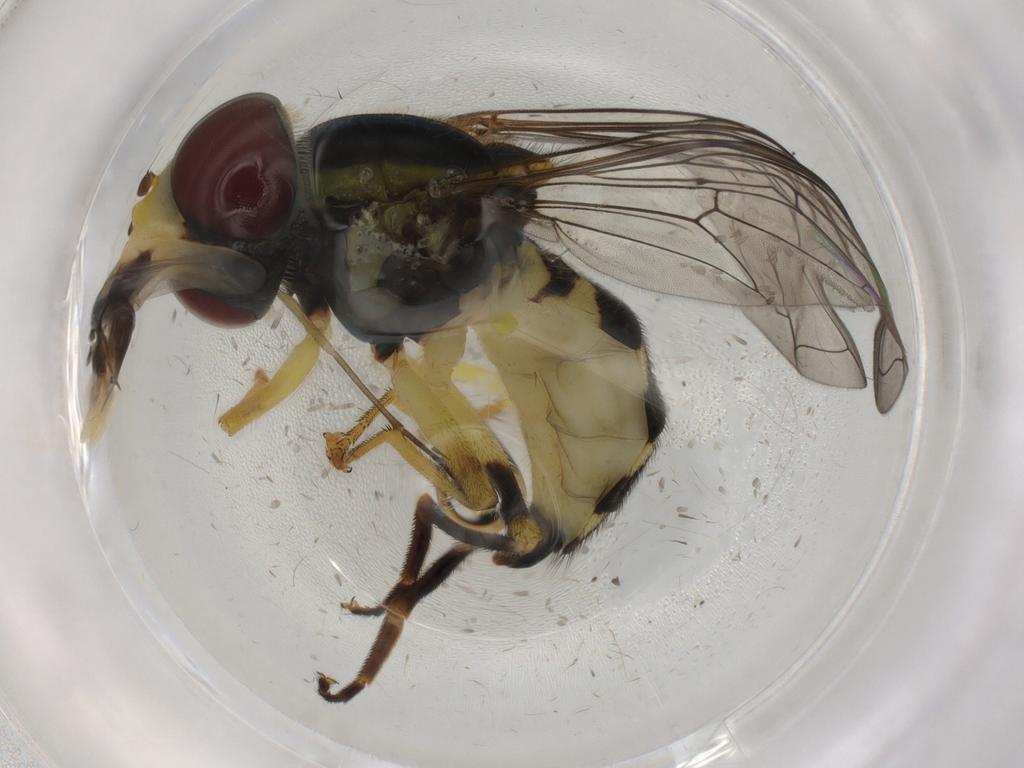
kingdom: Animalia
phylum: Arthropoda
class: Insecta
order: Diptera
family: Syrphidae
